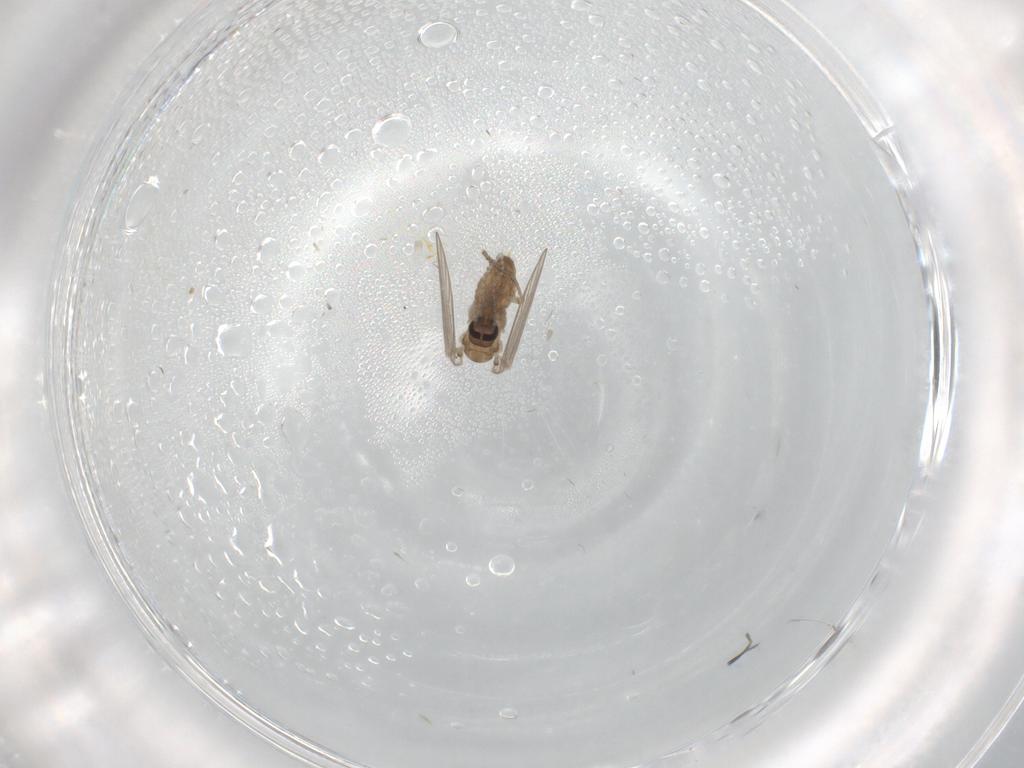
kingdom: Animalia
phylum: Arthropoda
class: Insecta
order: Diptera
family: Psychodidae
